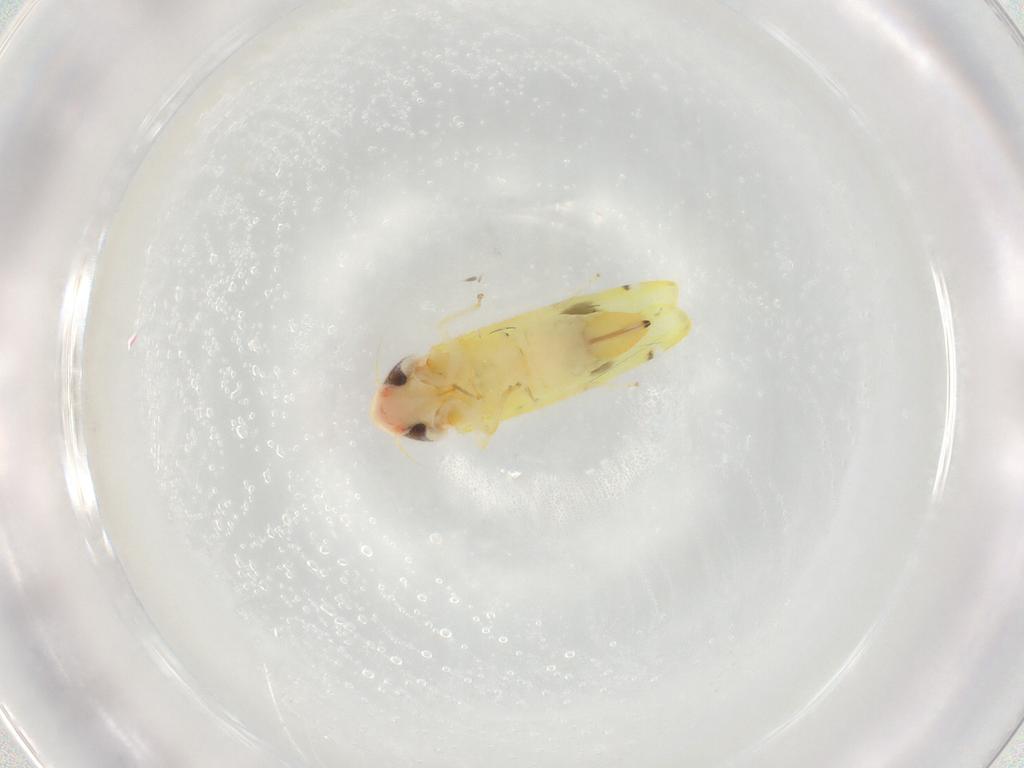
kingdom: Animalia
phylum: Arthropoda
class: Insecta
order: Hemiptera
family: Cicadellidae
